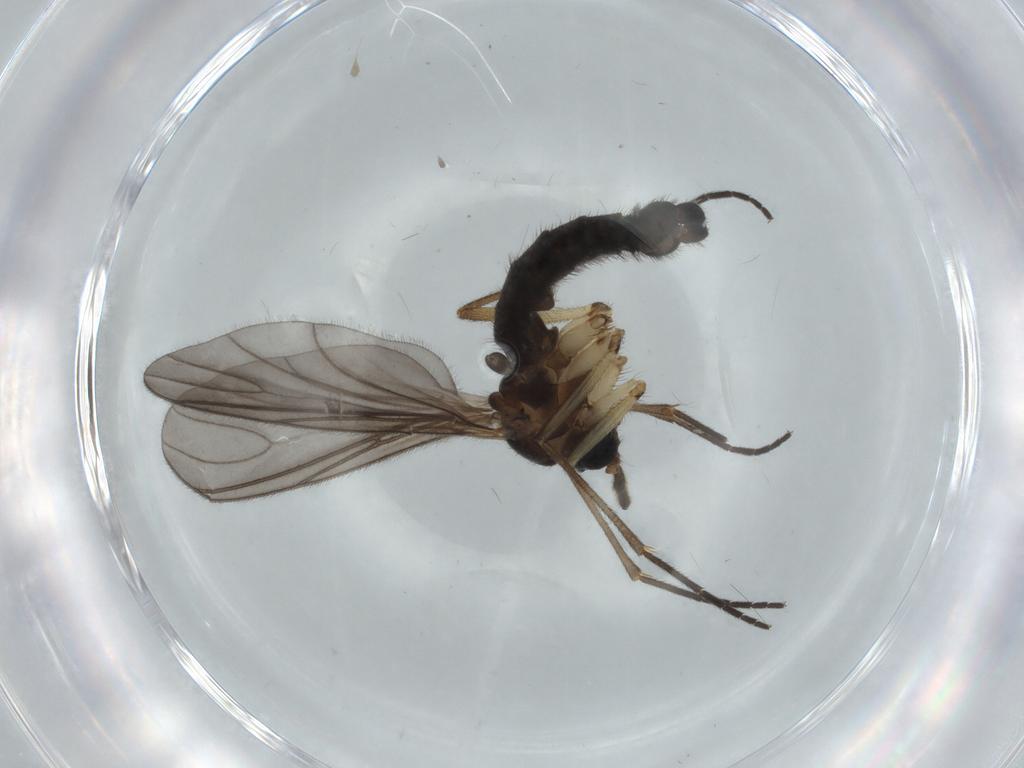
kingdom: Animalia
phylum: Arthropoda
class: Insecta
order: Diptera
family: Sciaridae
